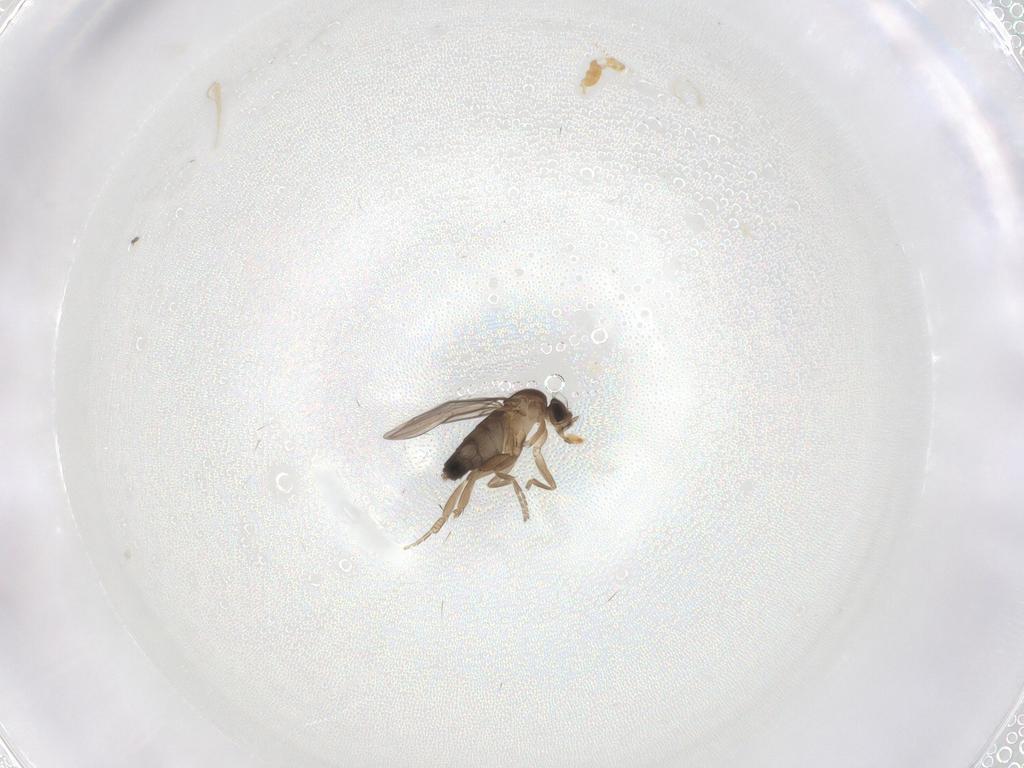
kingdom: Animalia
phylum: Arthropoda
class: Insecta
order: Diptera
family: Phoridae
